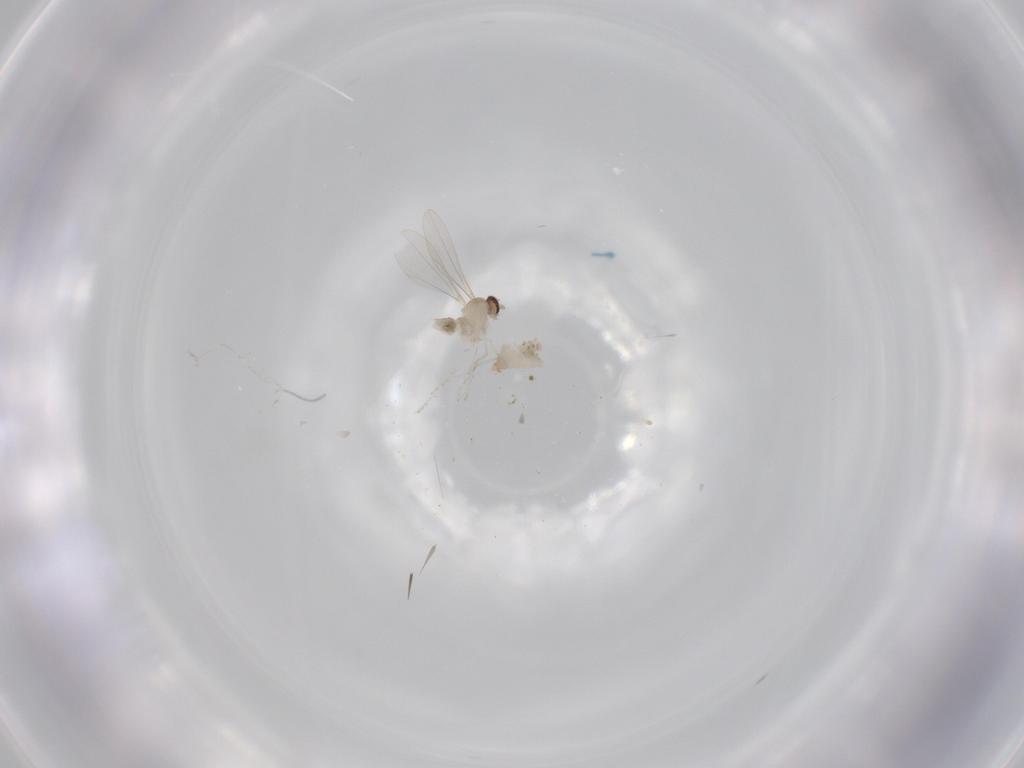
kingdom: Animalia
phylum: Arthropoda
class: Insecta
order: Diptera
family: Cecidomyiidae
